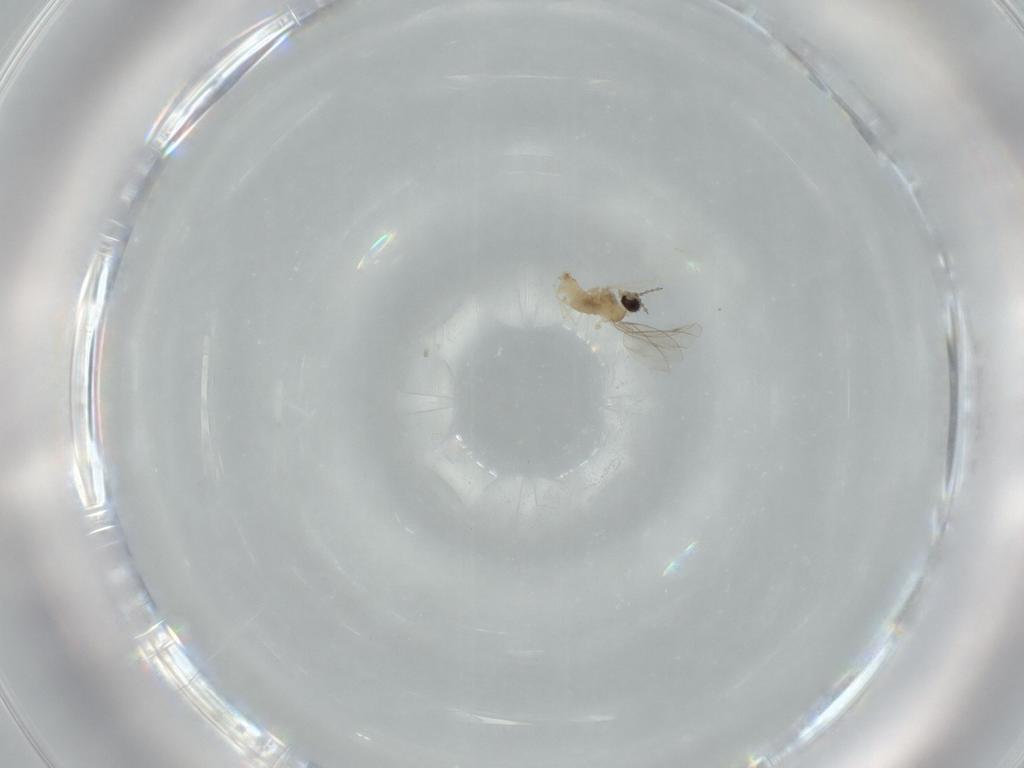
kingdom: Animalia
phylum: Arthropoda
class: Insecta
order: Diptera
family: Cecidomyiidae
